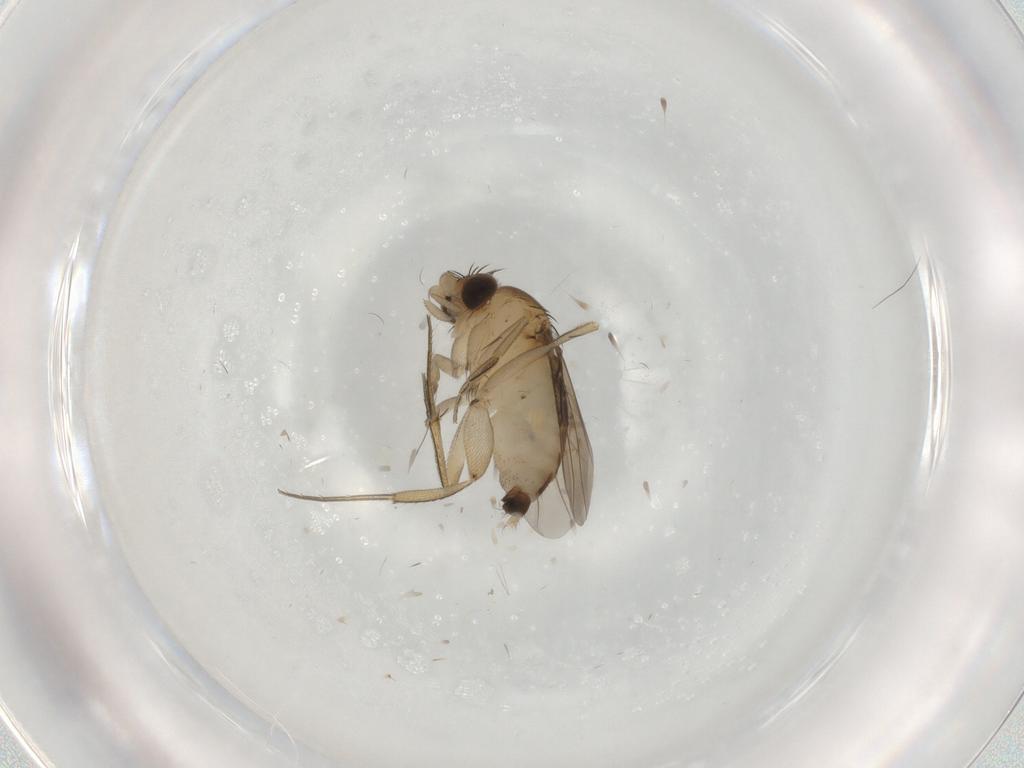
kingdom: Animalia
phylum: Arthropoda
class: Insecta
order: Diptera
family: Phoridae
